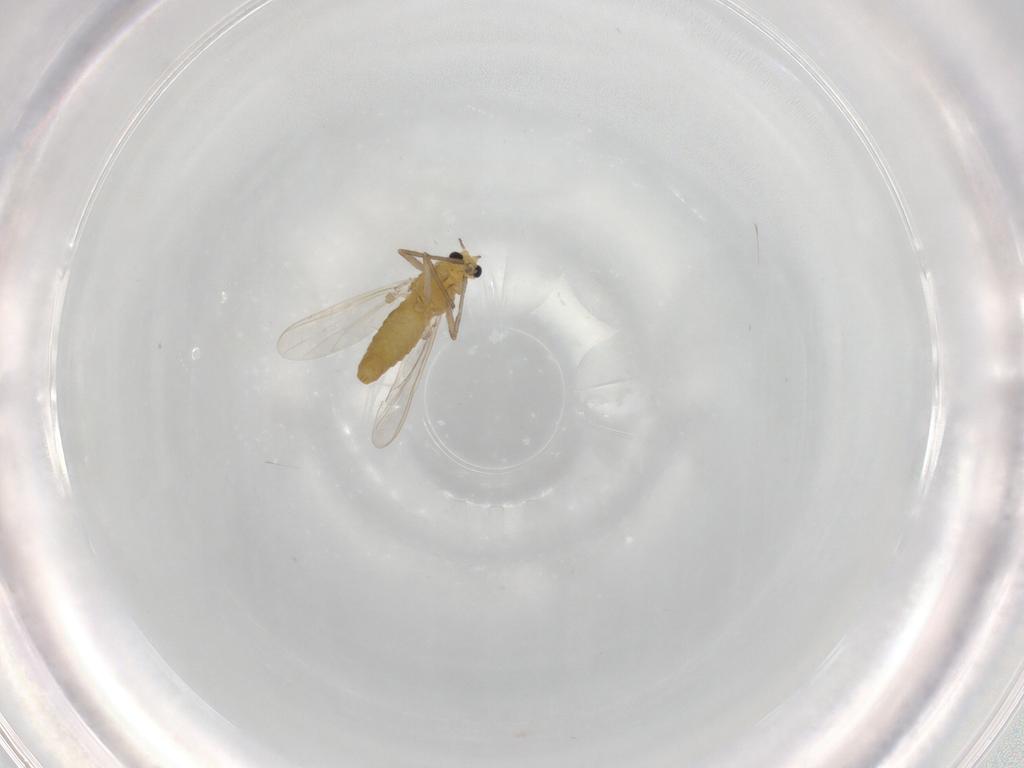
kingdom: Animalia
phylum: Arthropoda
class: Insecta
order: Diptera
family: Chironomidae
